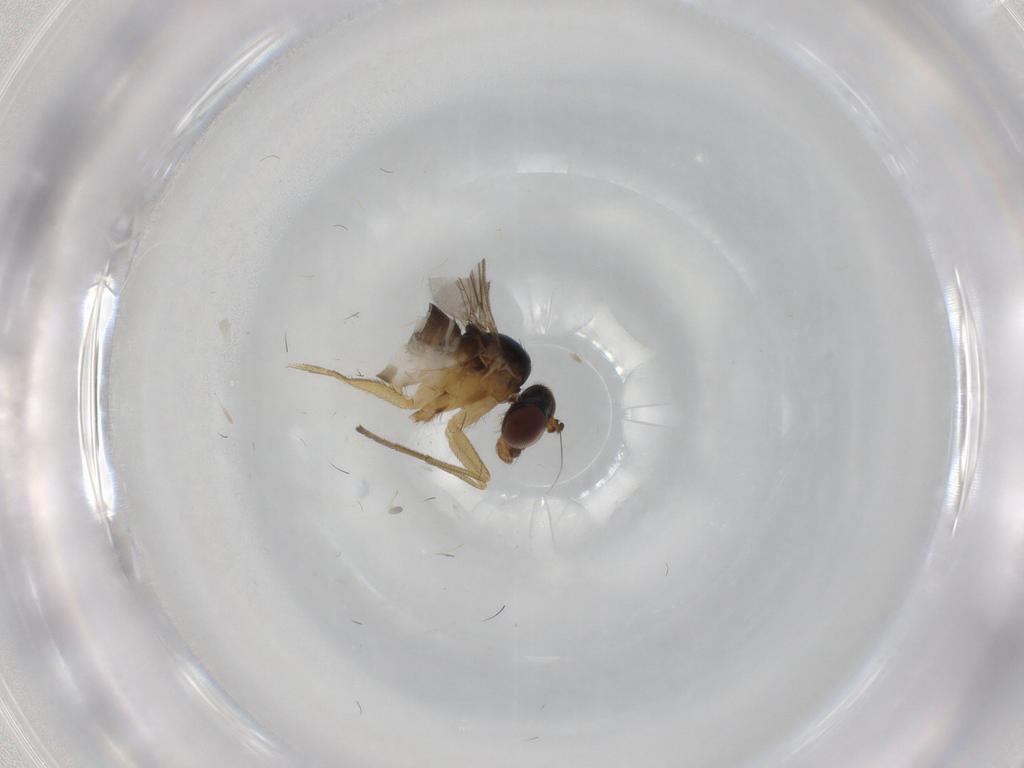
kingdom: Animalia
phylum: Arthropoda
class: Insecta
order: Diptera
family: Dolichopodidae
